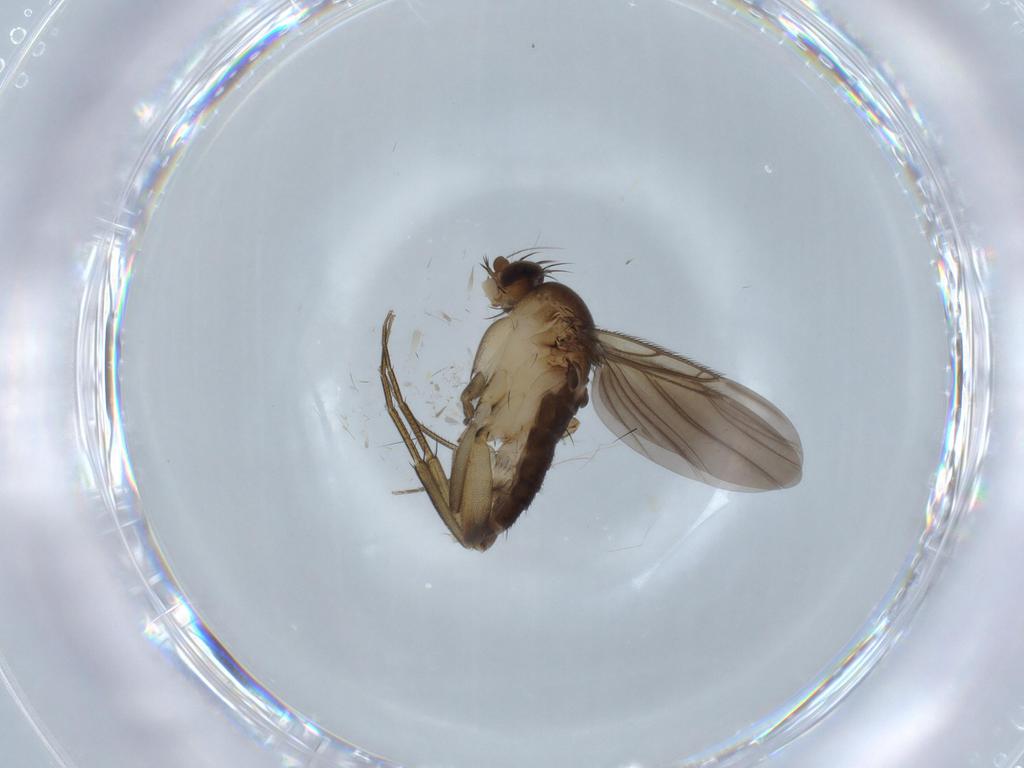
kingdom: Animalia
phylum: Arthropoda
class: Insecta
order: Diptera
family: Phoridae
